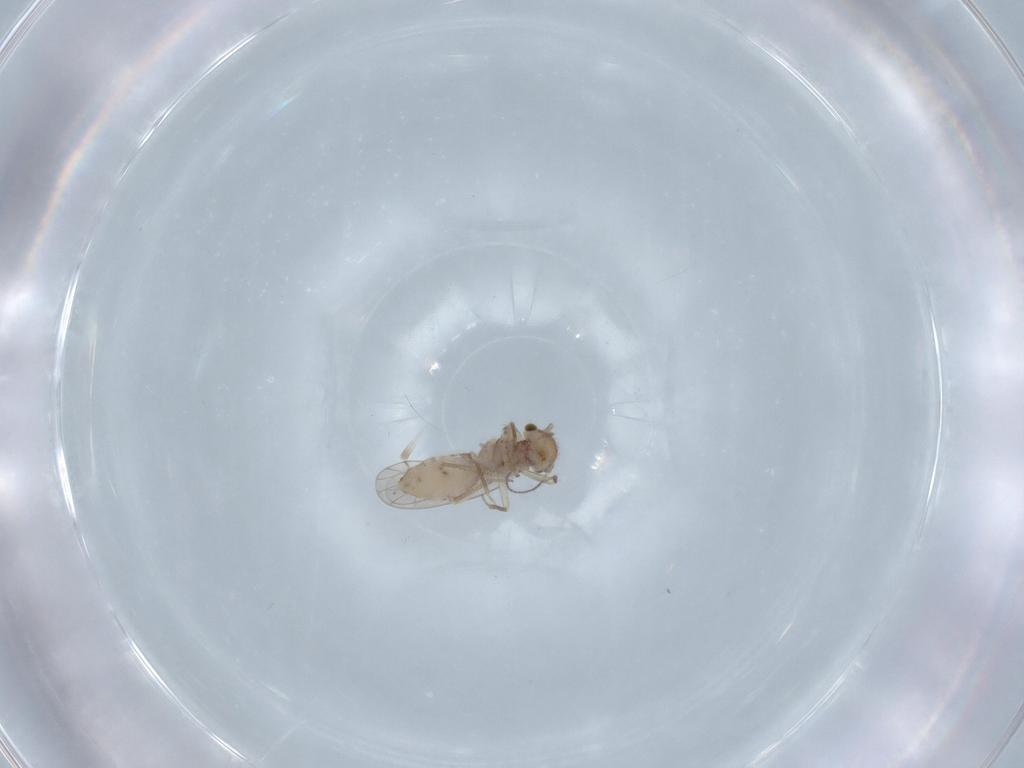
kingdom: Animalia
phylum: Arthropoda
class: Insecta
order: Psocodea
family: Ectopsocidae
